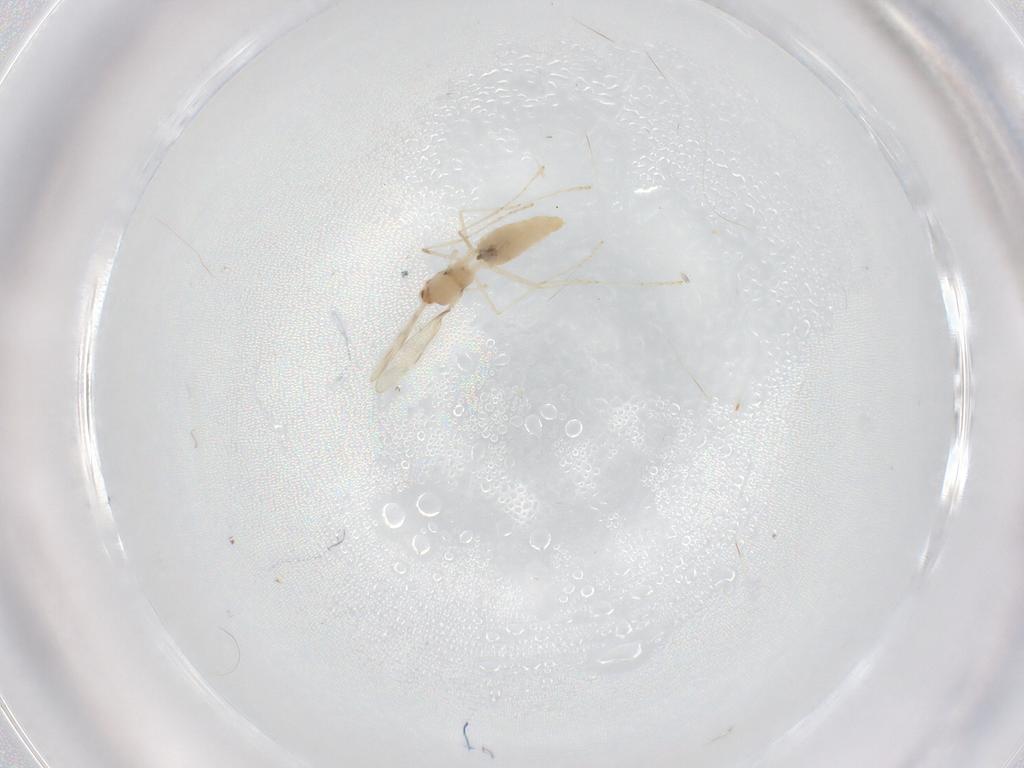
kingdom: Animalia
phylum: Arthropoda
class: Insecta
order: Diptera
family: Cecidomyiidae
